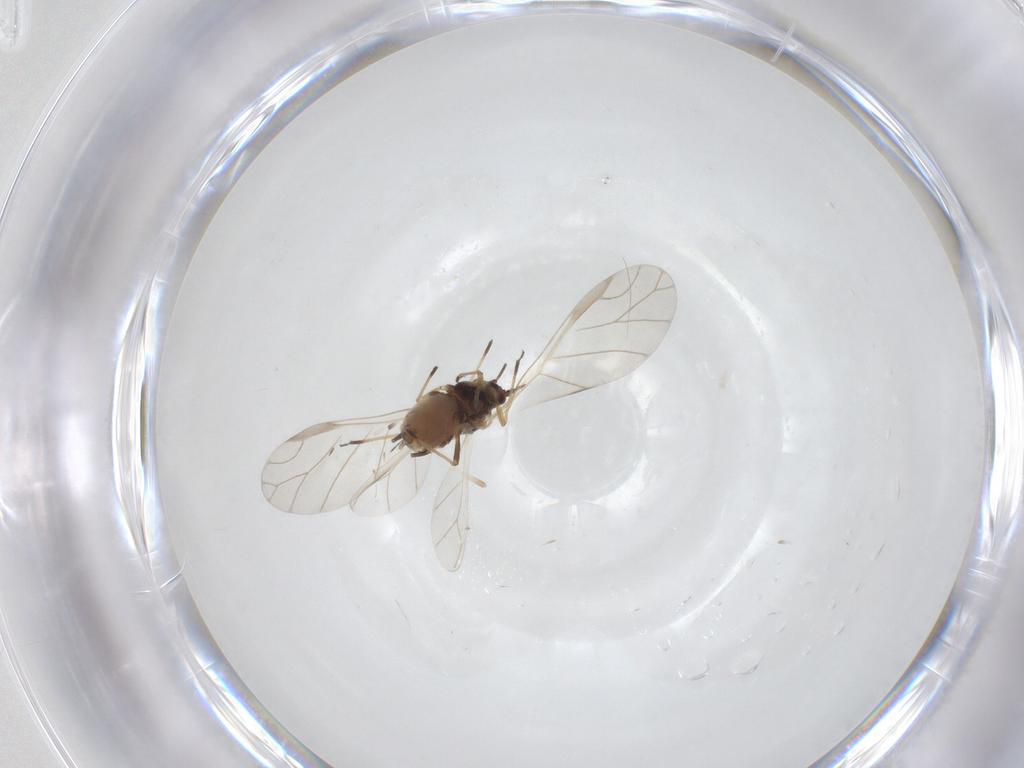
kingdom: Animalia
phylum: Arthropoda
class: Insecta
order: Hemiptera
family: Aphididae
